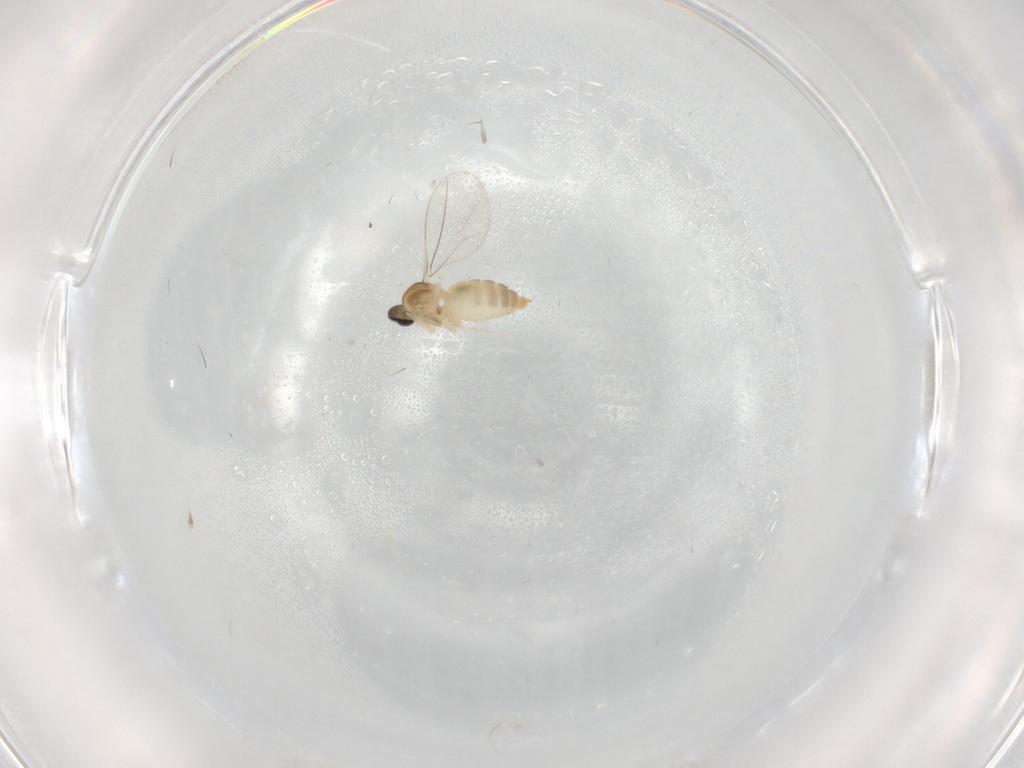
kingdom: Animalia
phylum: Arthropoda
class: Insecta
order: Diptera
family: Cecidomyiidae
